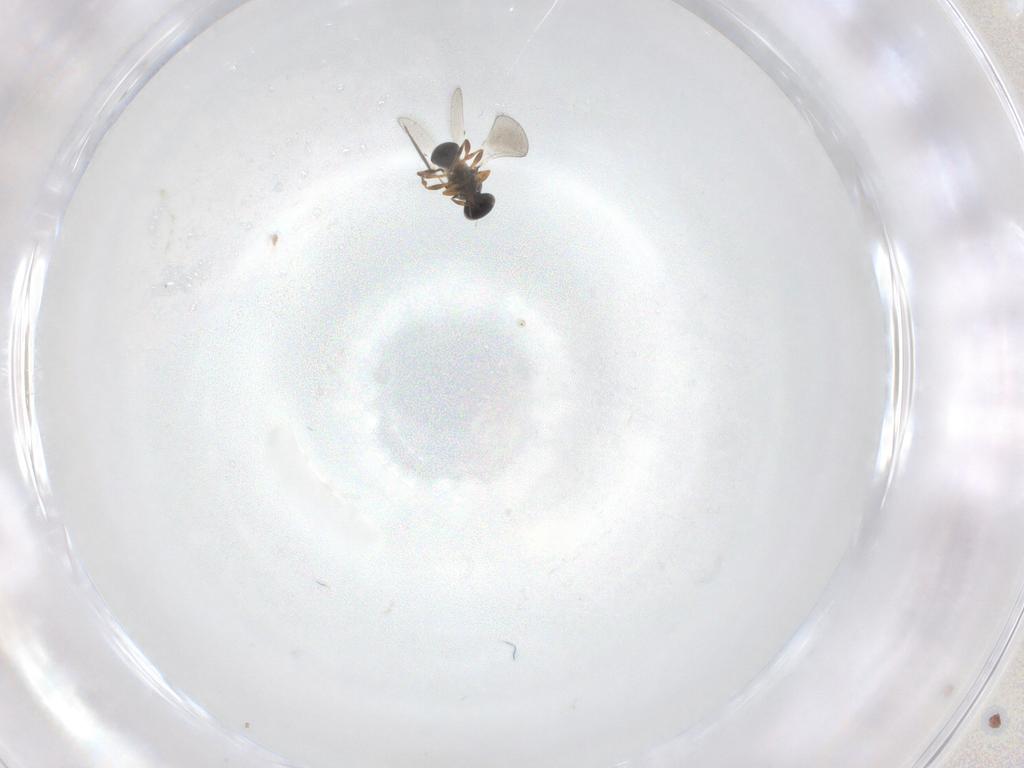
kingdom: Animalia
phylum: Arthropoda
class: Insecta
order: Hymenoptera
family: Platygastridae
